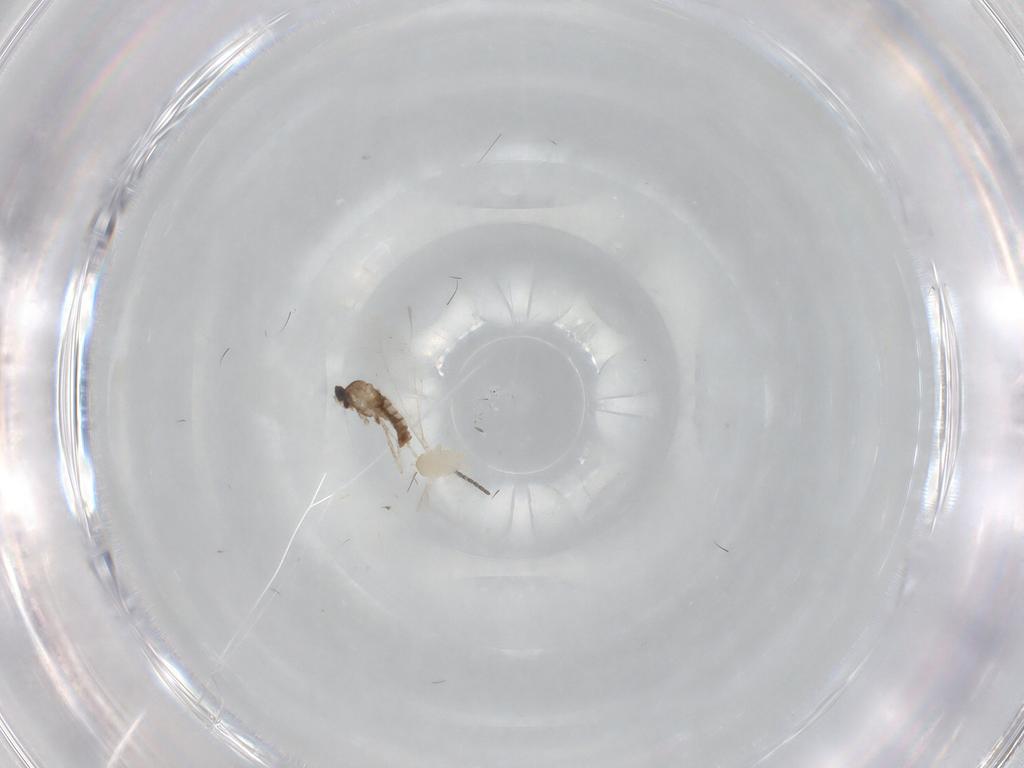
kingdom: Animalia
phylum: Arthropoda
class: Insecta
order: Diptera
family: Cecidomyiidae
